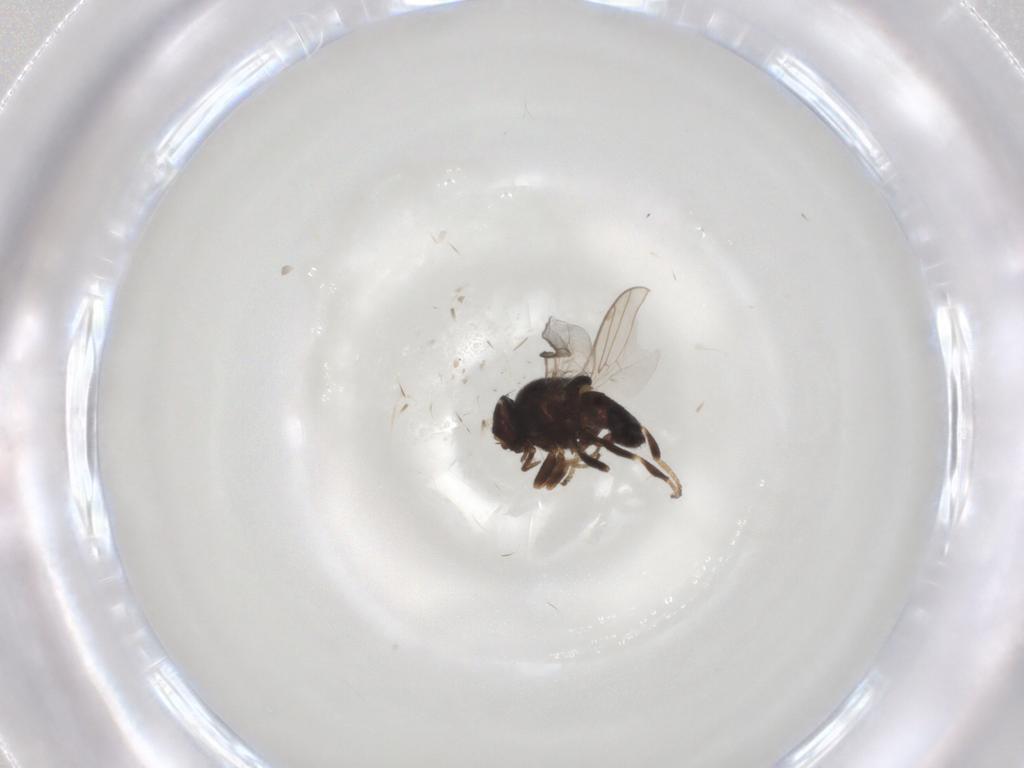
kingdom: Animalia
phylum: Arthropoda
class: Insecta
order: Diptera
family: Chloropidae
